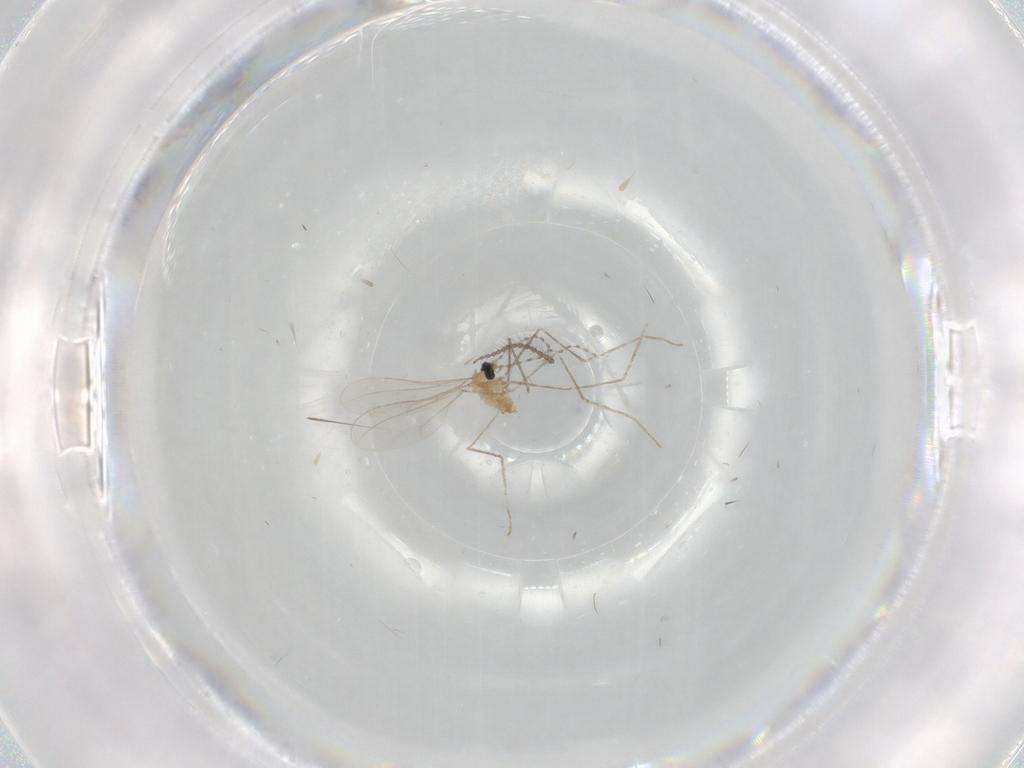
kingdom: Animalia
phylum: Arthropoda
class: Insecta
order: Diptera
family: Cecidomyiidae
